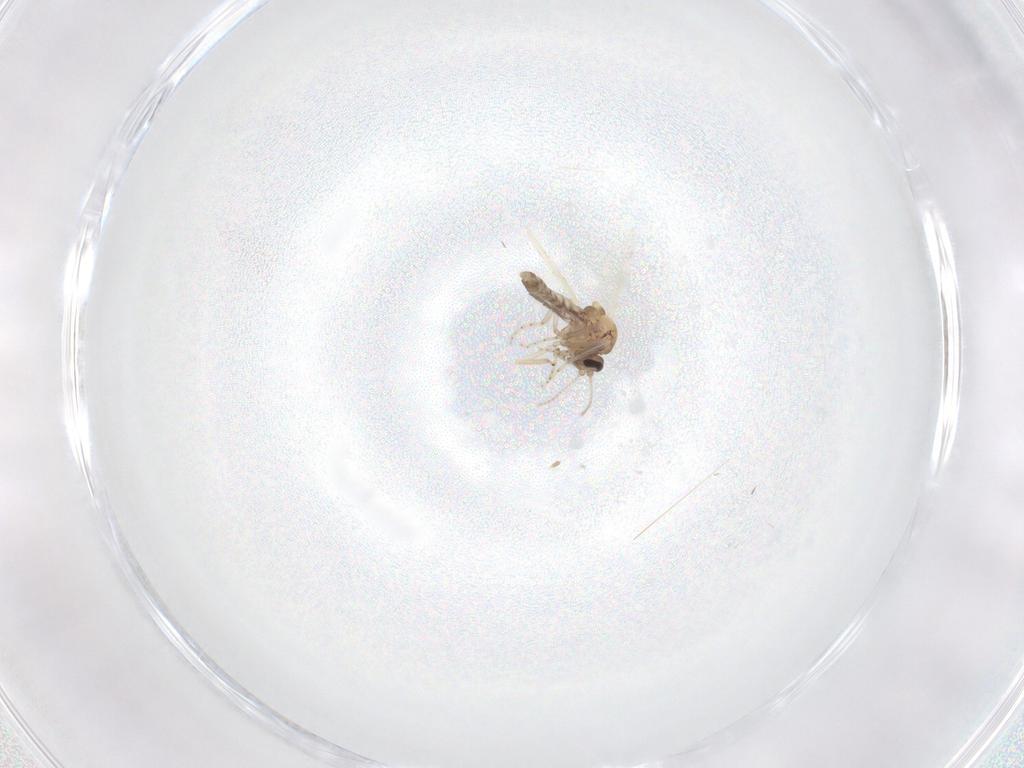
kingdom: Animalia
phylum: Arthropoda
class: Insecta
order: Diptera
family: Ceratopogonidae
